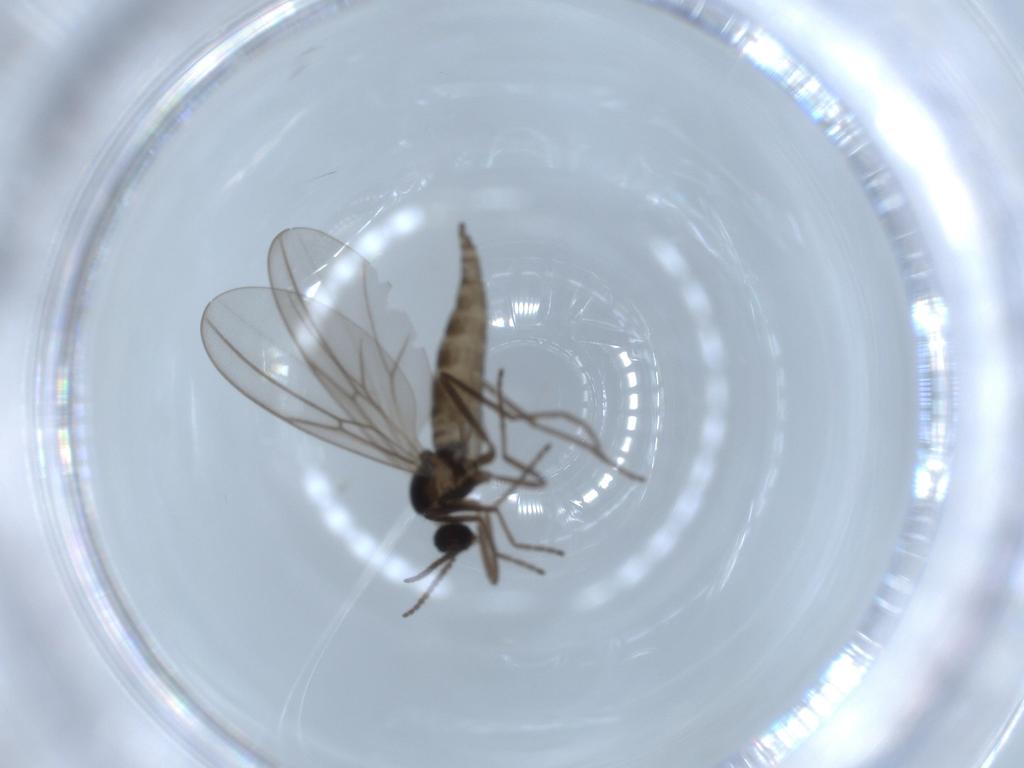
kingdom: Animalia
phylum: Arthropoda
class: Insecta
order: Diptera
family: Cecidomyiidae
